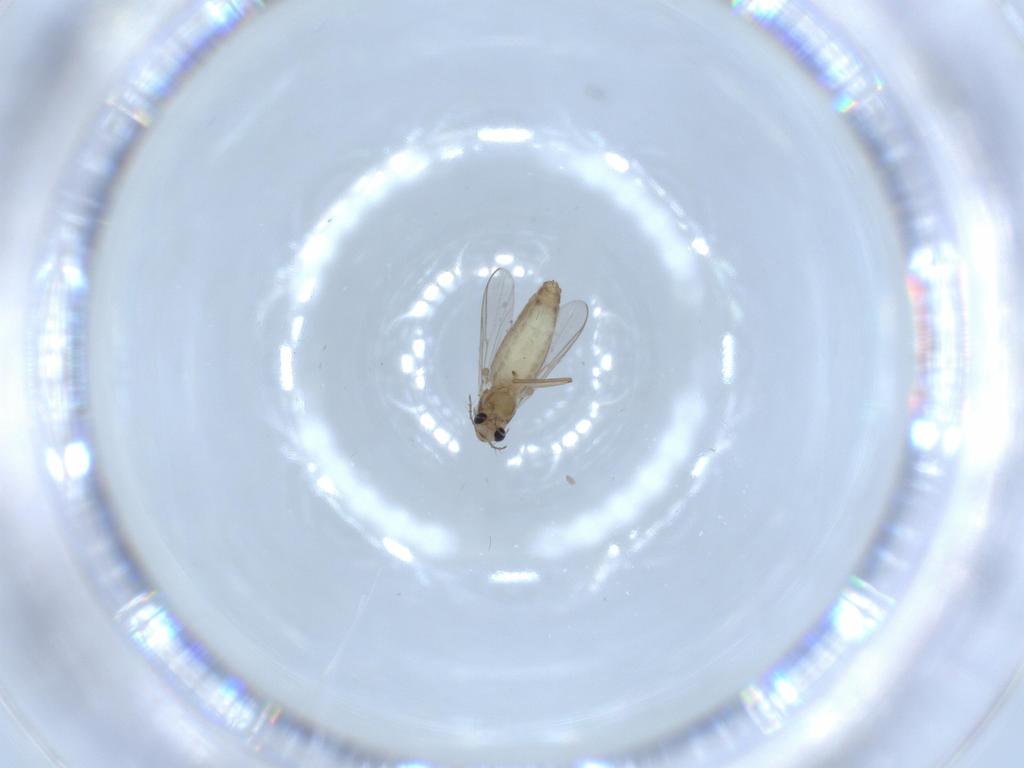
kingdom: Animalia
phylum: Arthropoda
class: Insecta
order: Diptera
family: Chironomidae
